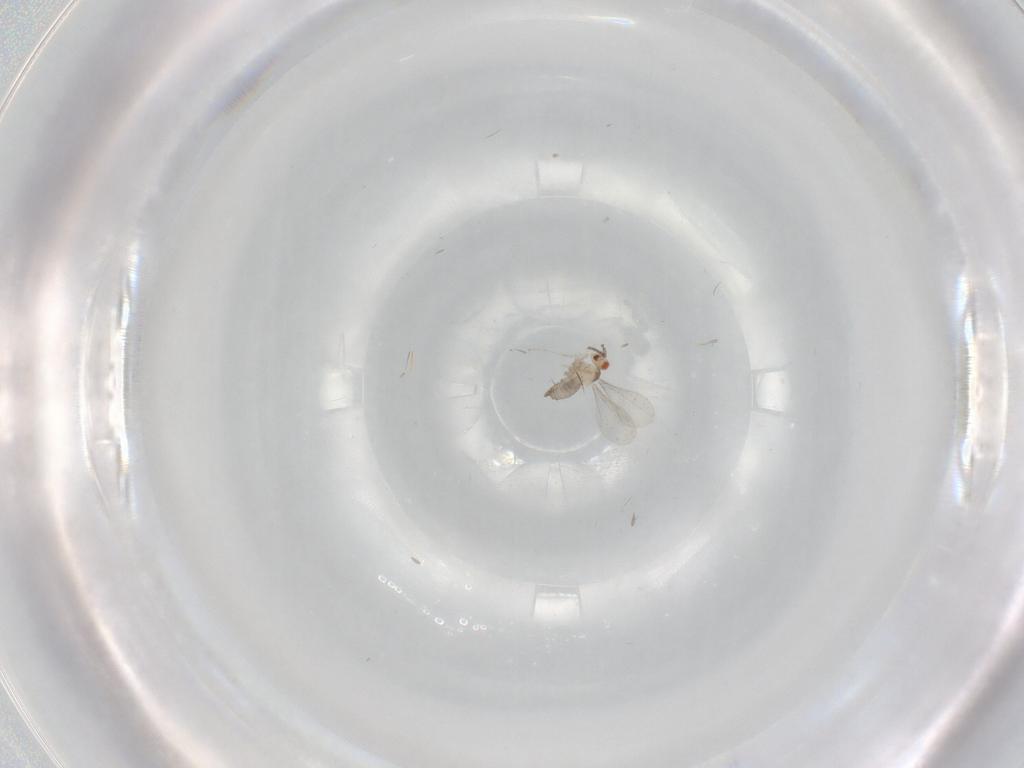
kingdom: Animalia
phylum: Arthropoda
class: Insecta
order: Diptera
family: Cecidomyiidae
